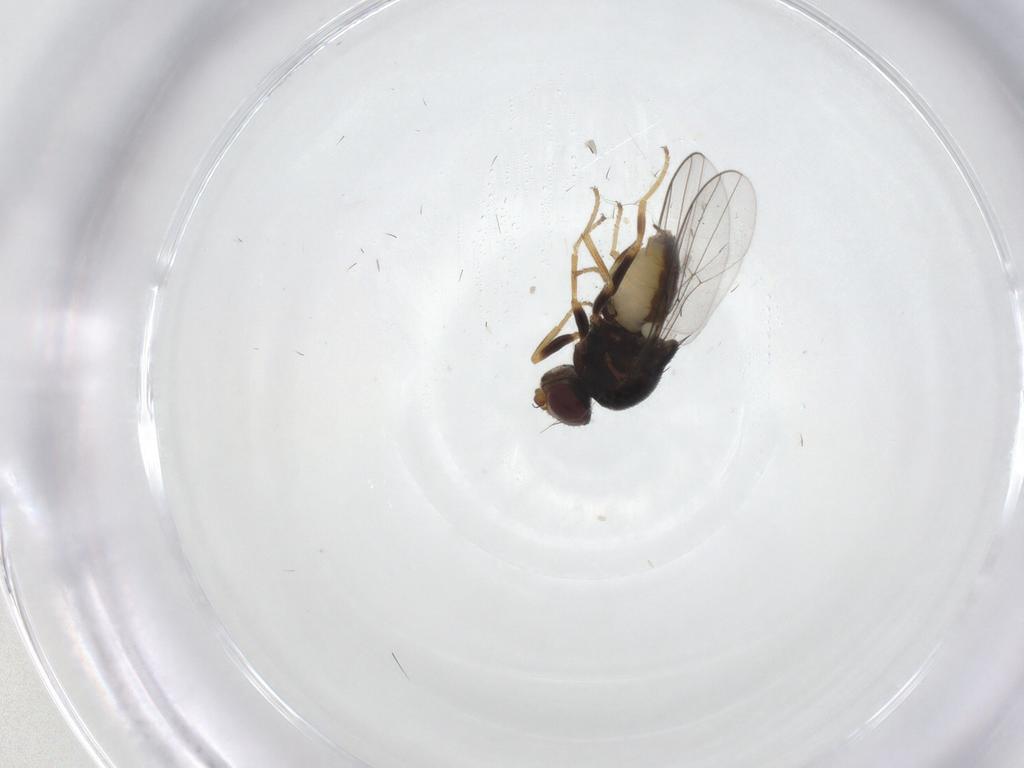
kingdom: Animalia
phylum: Arthropoda
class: Insecta
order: Diptera
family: Chloropidae
